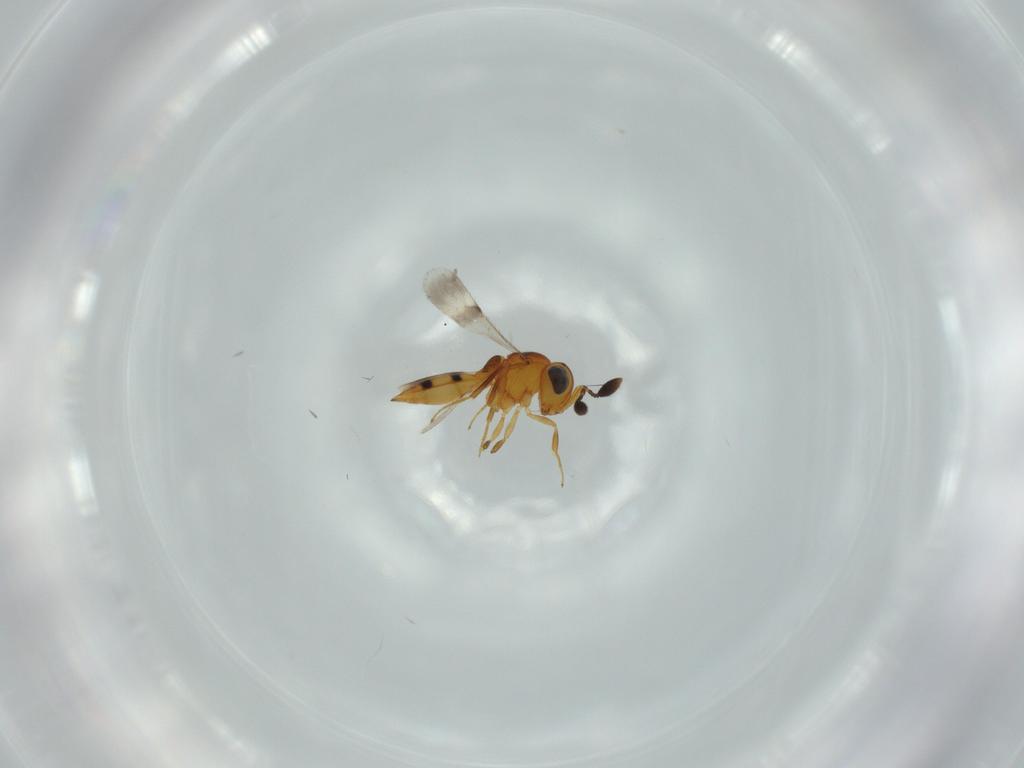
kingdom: Animalia
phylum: Arthropoda
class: Insecta
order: Hymenoptera
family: Scelionidae
